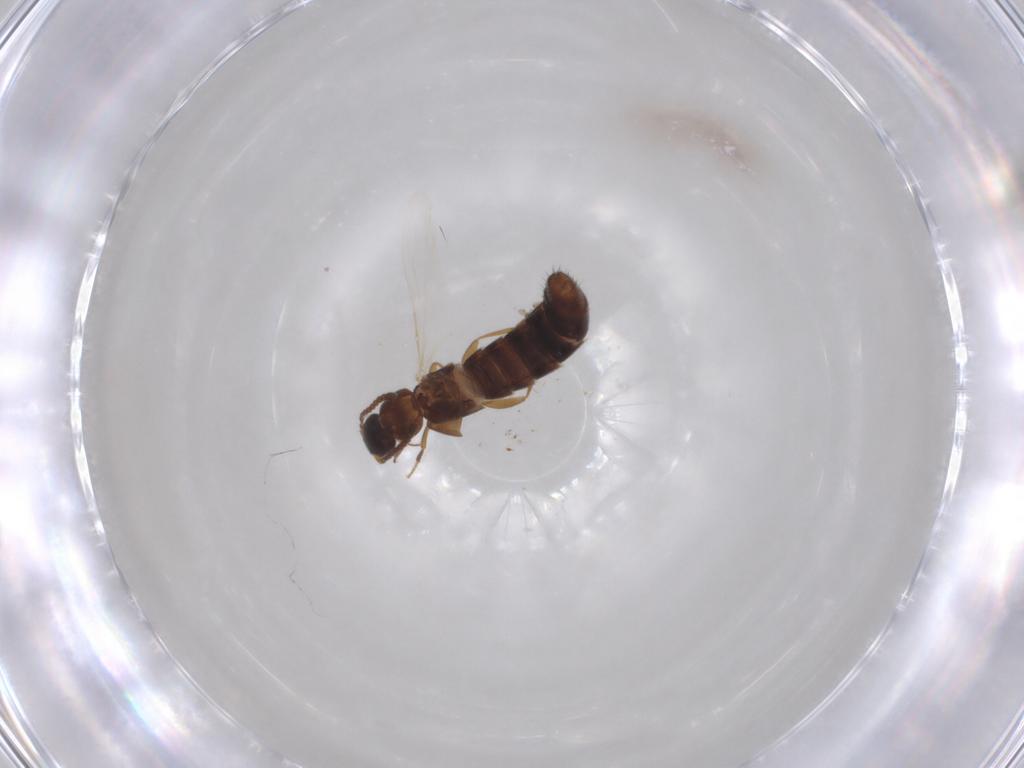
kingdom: Animalia
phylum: Arthropoda
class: Insecta
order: Coleoptera
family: Staphylinidae
